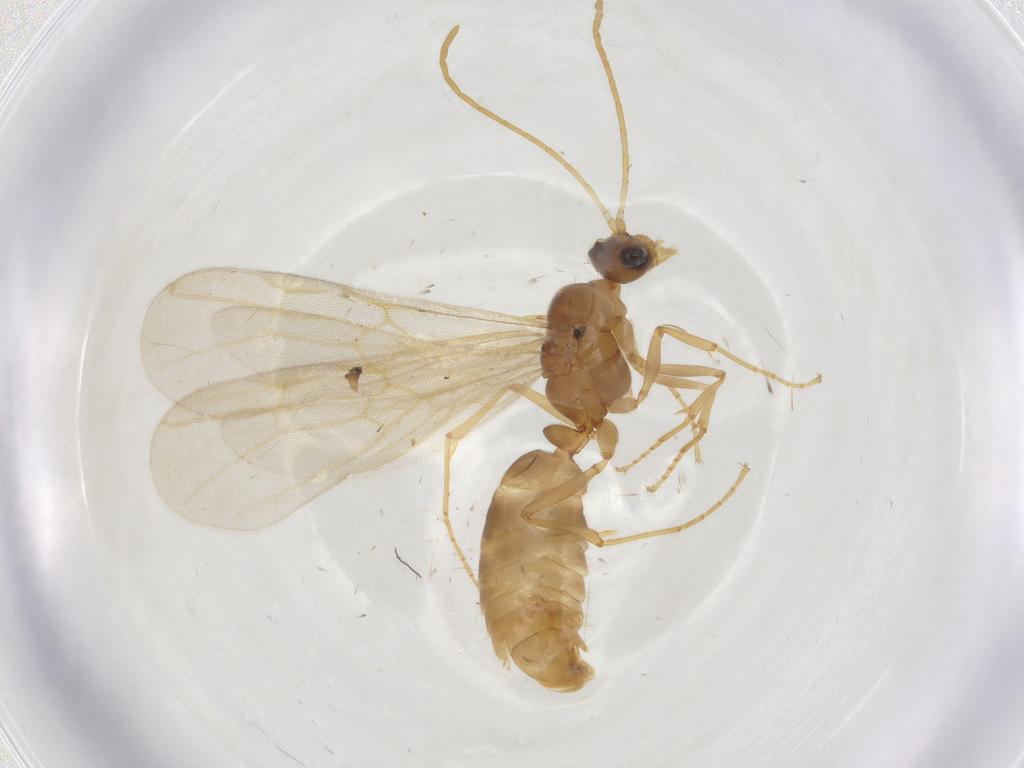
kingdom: Animalia
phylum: Arthropoda
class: Insecta
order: Hymenoptera
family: Formicidae
